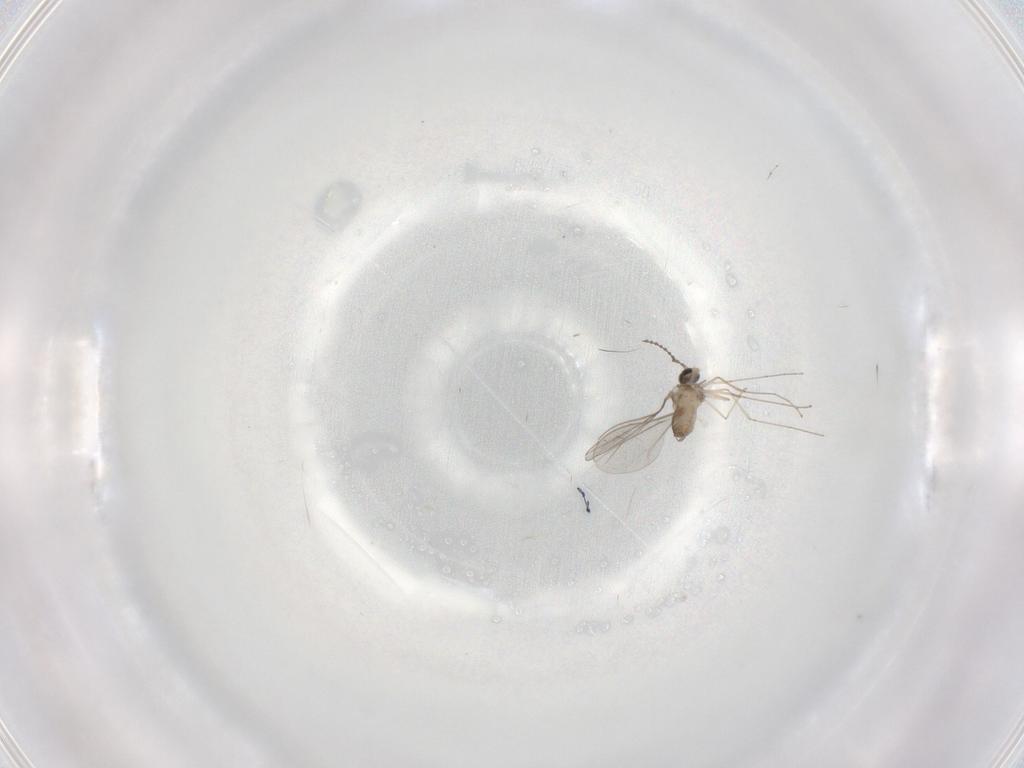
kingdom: Animalia
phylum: Arthropoda
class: Insecta
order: Diptera
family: Cecidomyiidae
